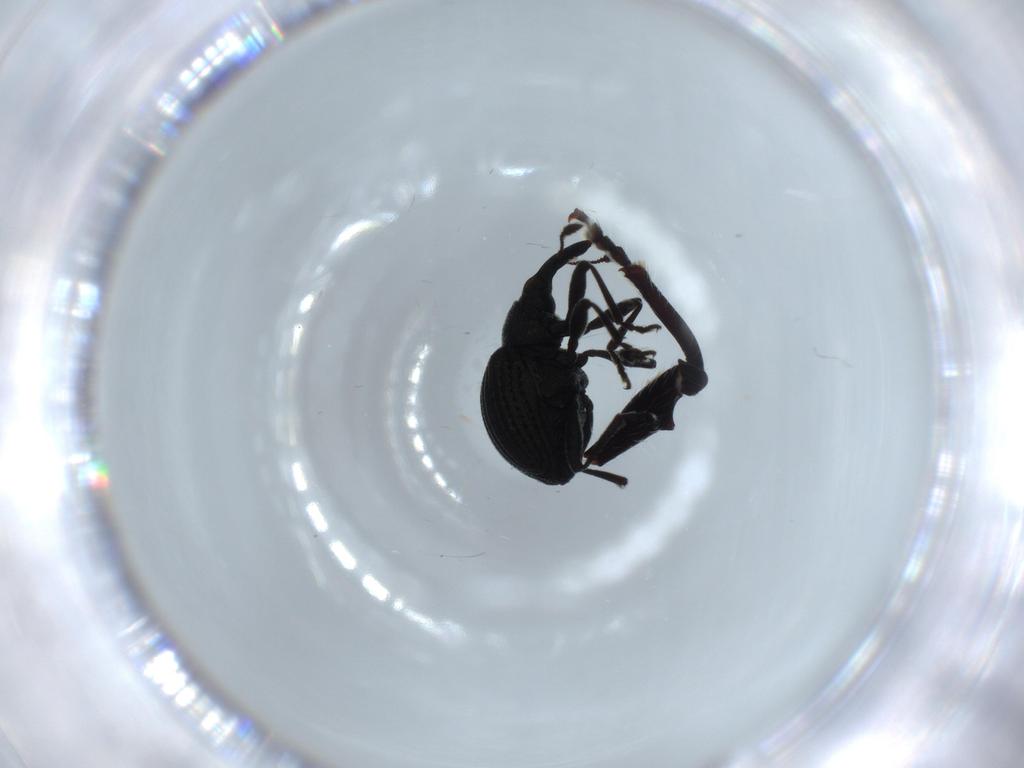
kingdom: Animalia
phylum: Arthropoda
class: Insecta
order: Coleoptera
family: Brentidae
